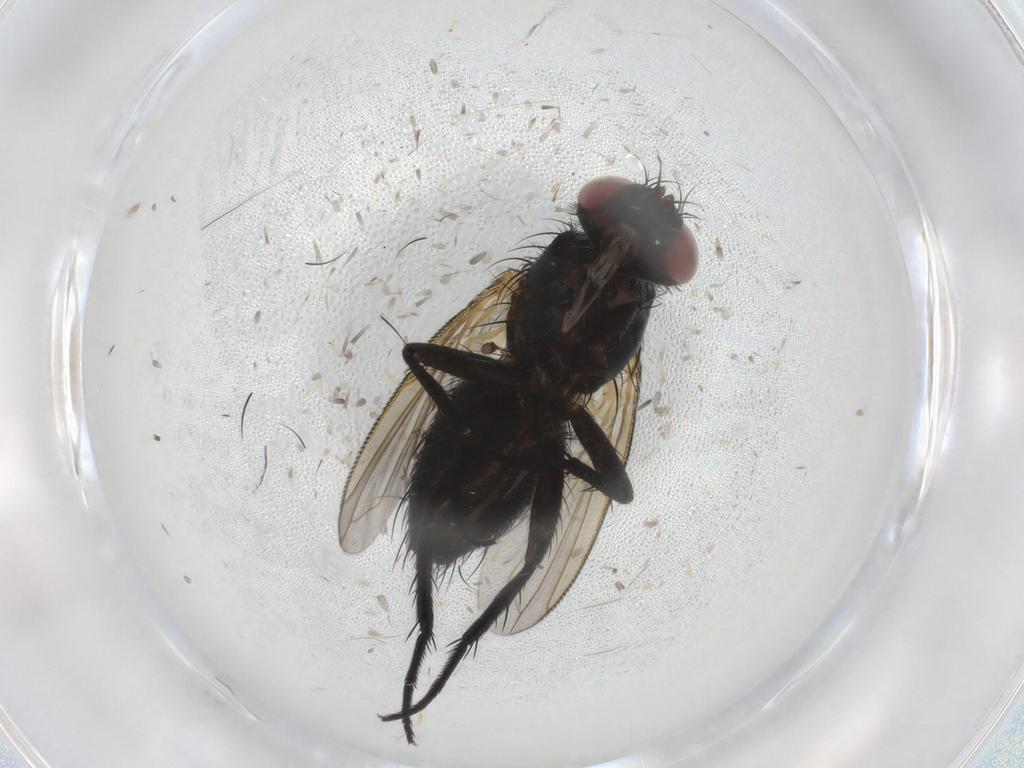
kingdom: Animalia
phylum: Arthropoda
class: Insecta
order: Diptera
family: Tachinidae
